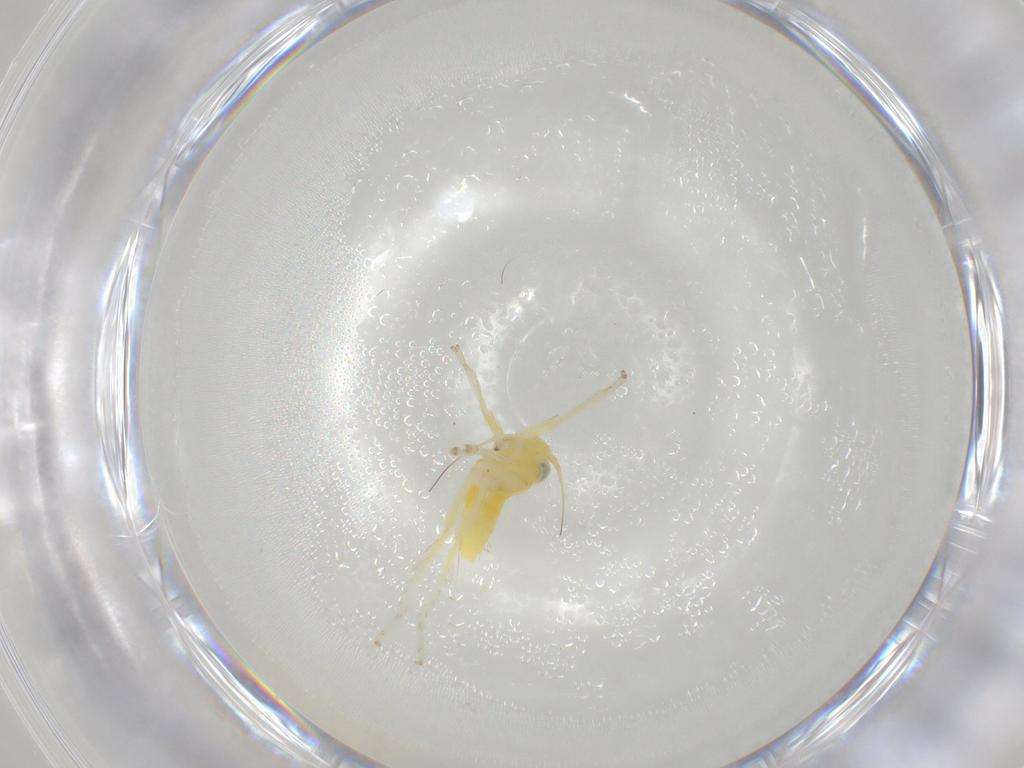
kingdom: Animalia
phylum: Arthropoda
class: Insecta
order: Hemiptera
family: Cicadellidae
